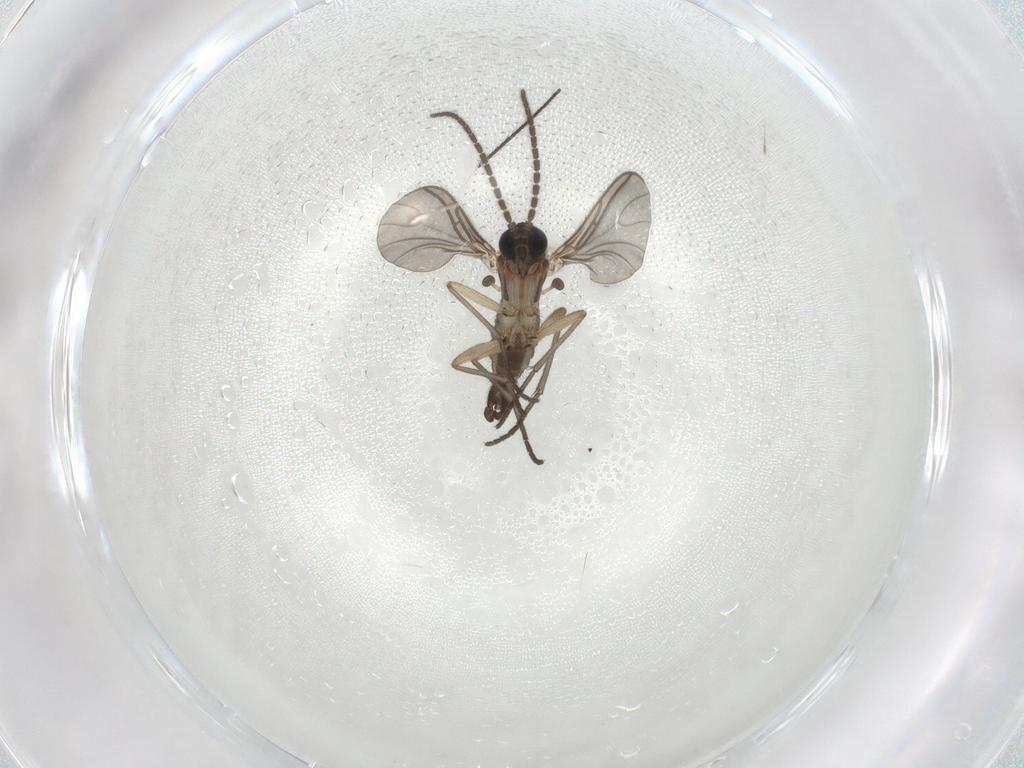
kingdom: Animalia
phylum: Arthropoda
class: Insecta
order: Diptera
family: Sciaridae
